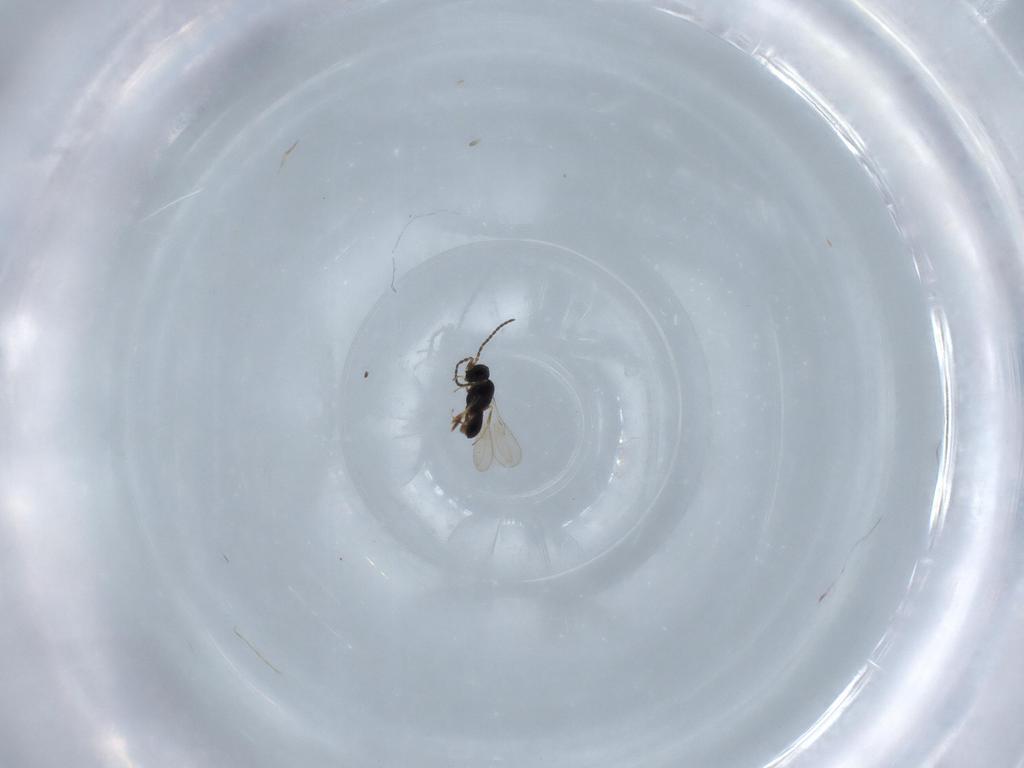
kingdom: Animalia
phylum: Arthropoda
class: Insecta
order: Hymenoptera
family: Scelionidae
